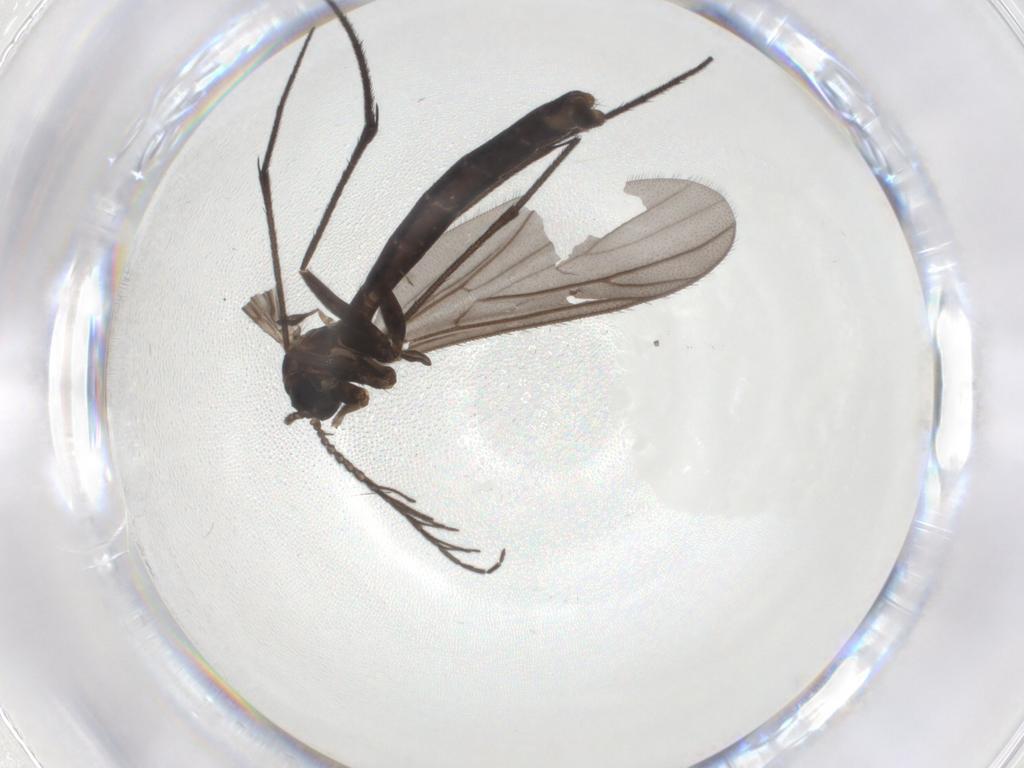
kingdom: Animalia
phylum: Arthropoda
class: Insecta
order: Diptera
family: Ditomyiidae
